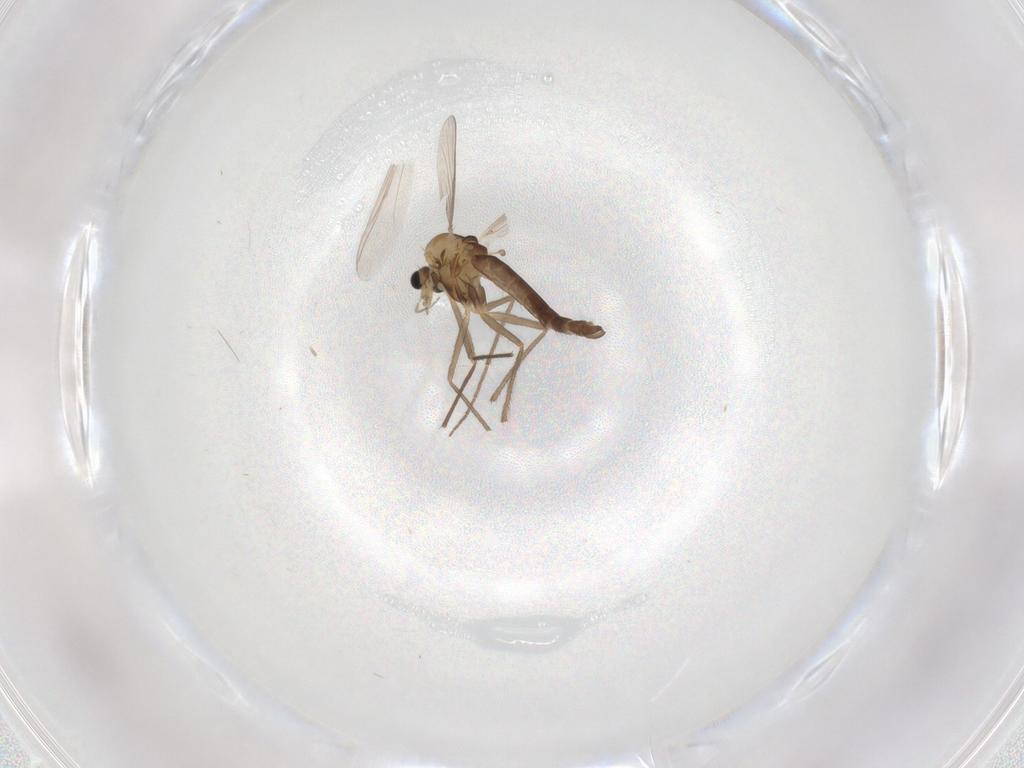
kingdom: Animalia
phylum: Arthropoda
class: Insecta
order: Diptera
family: Chironomidae
